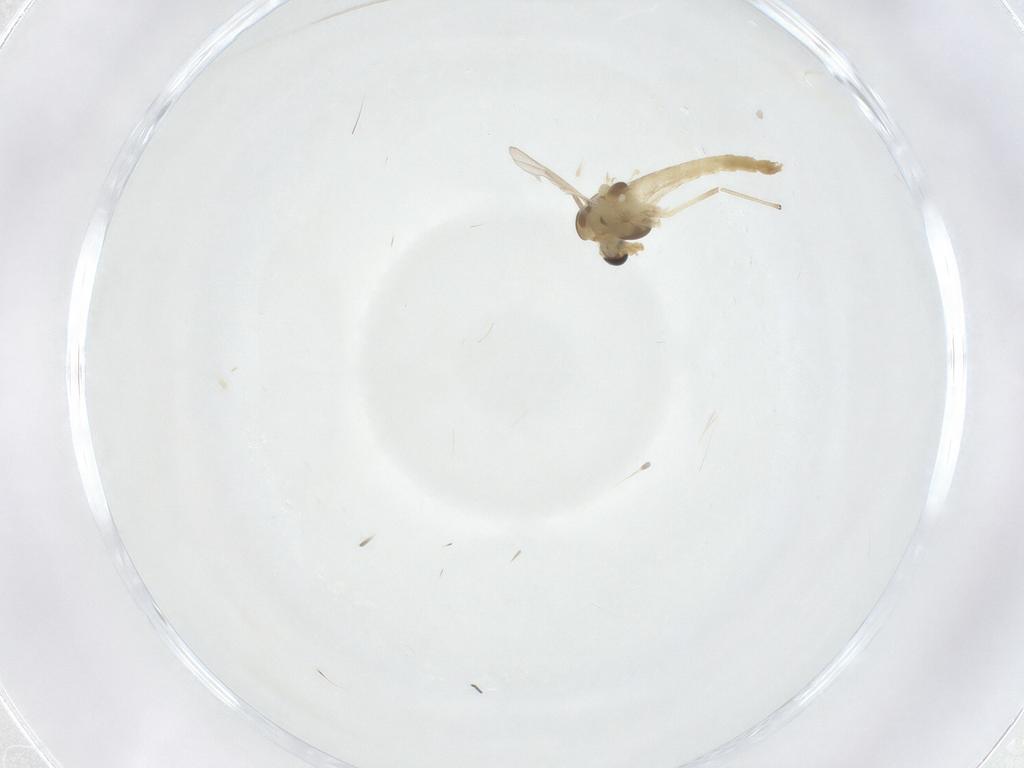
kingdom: Animalia
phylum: Arthropoda
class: Insecta
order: Diptera
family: Chironomidae
